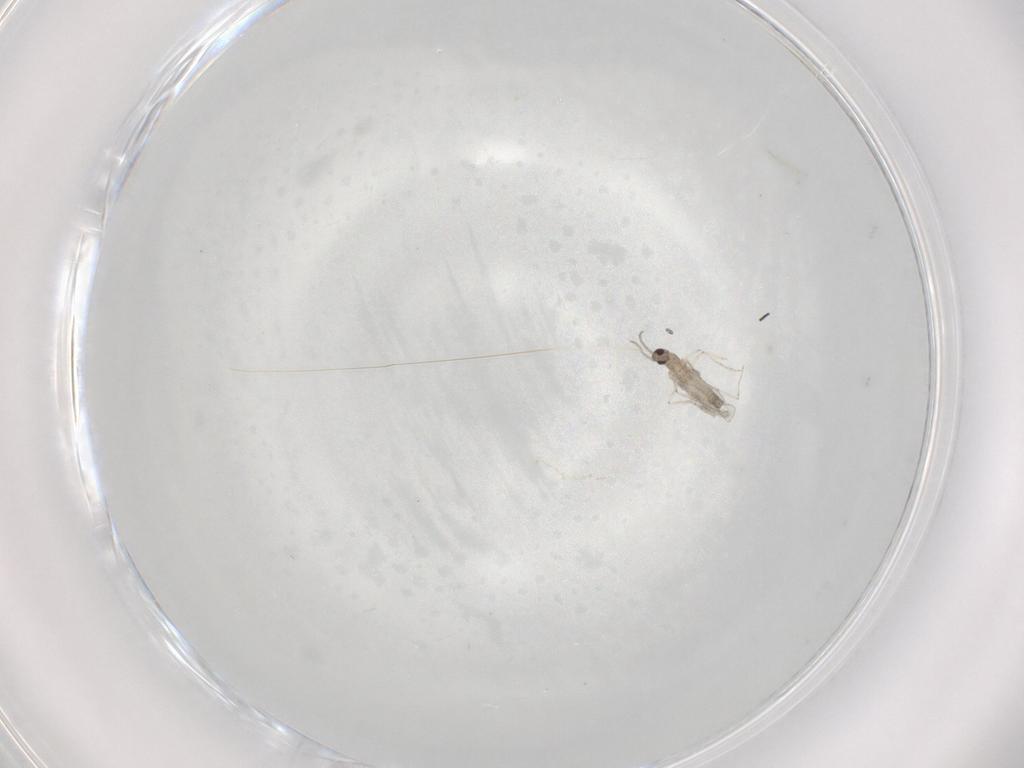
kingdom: Animalia
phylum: Arthropoda
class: Insecta
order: Diptera
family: Cecidomyiidae
